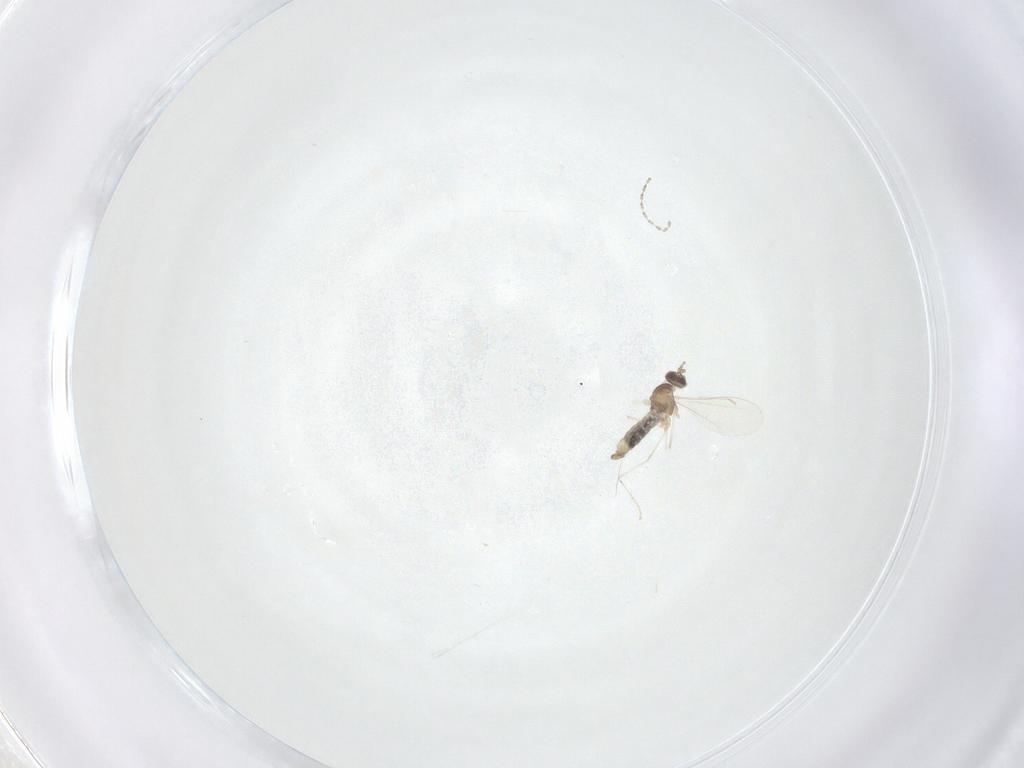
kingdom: Animalia
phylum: Arthropoda
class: Insecta
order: Diptera
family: Cecidomyiidae
